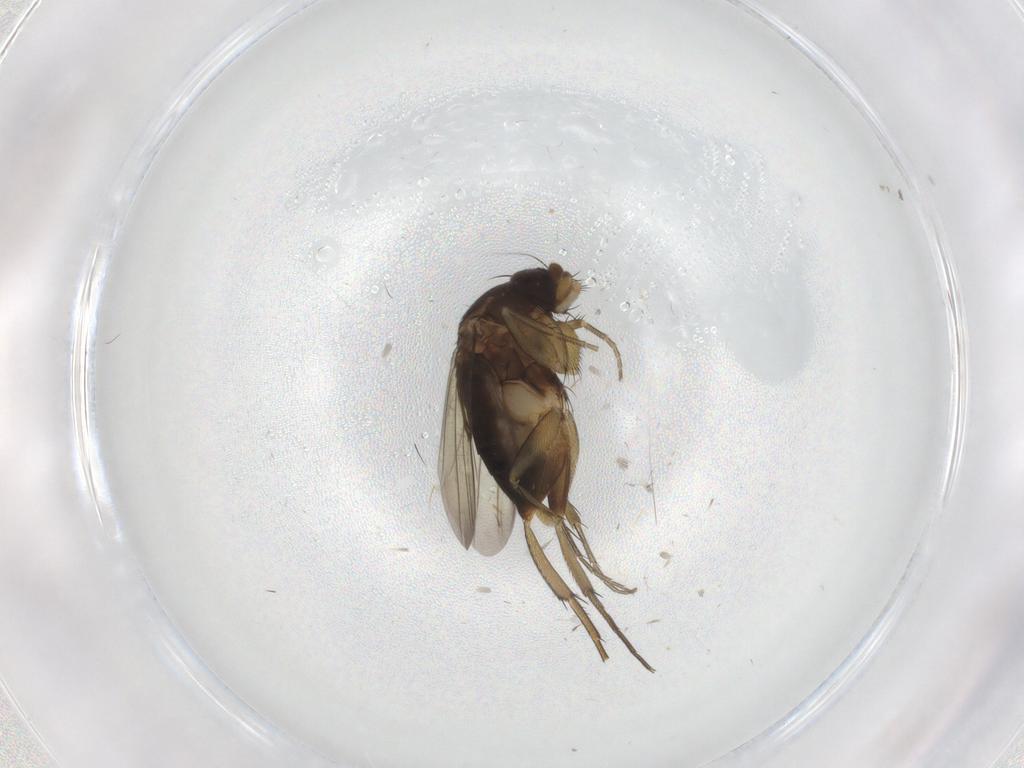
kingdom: Animalia
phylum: Arthropoda
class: Insecta
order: Diptera
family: Phoridae
